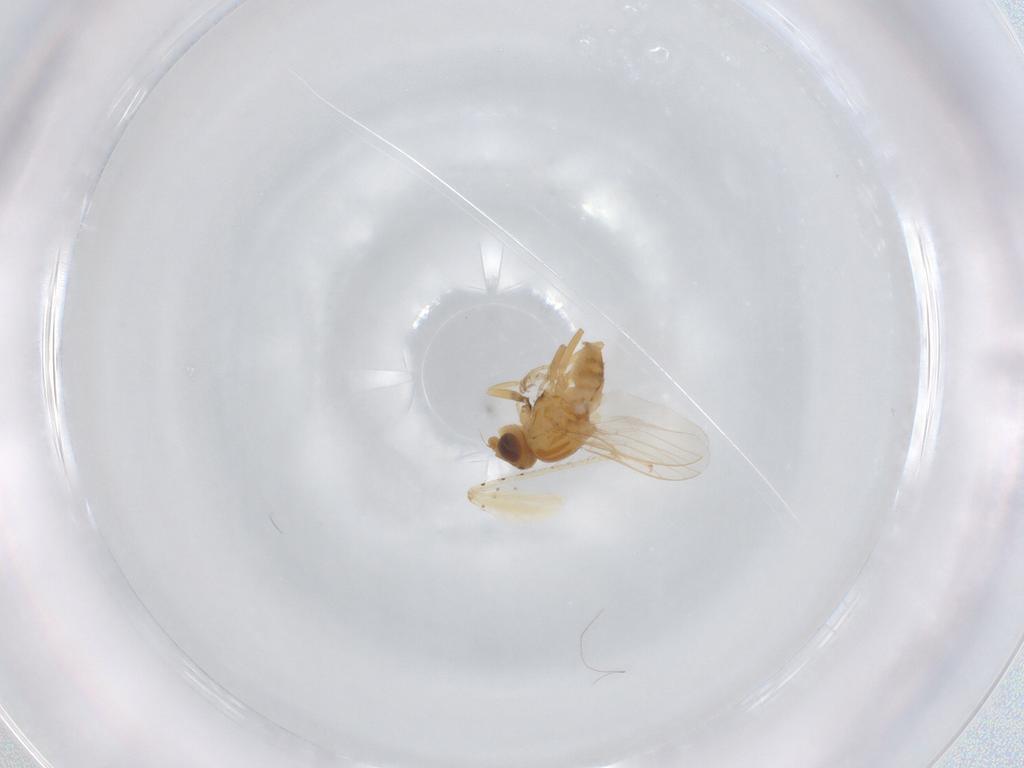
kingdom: Animalia
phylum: Arthropoda
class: Insecta
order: Diptera
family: Chloropidae
